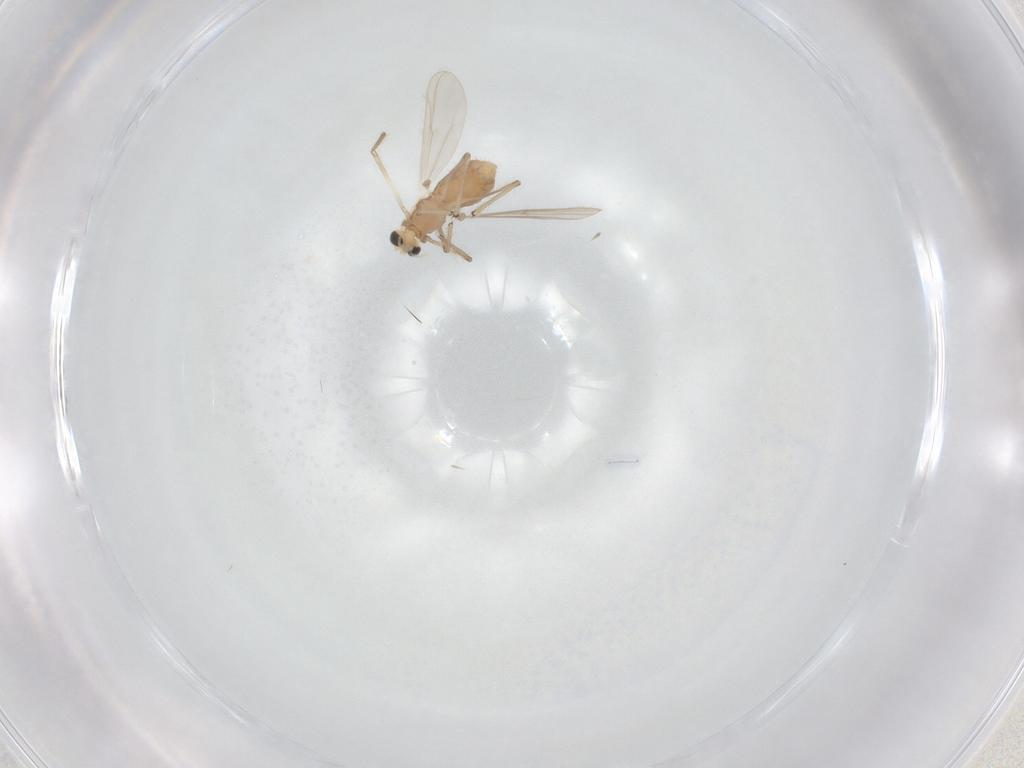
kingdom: Animalia
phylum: Arthropoda
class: Insecta
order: Diptera
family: Chironomidae
